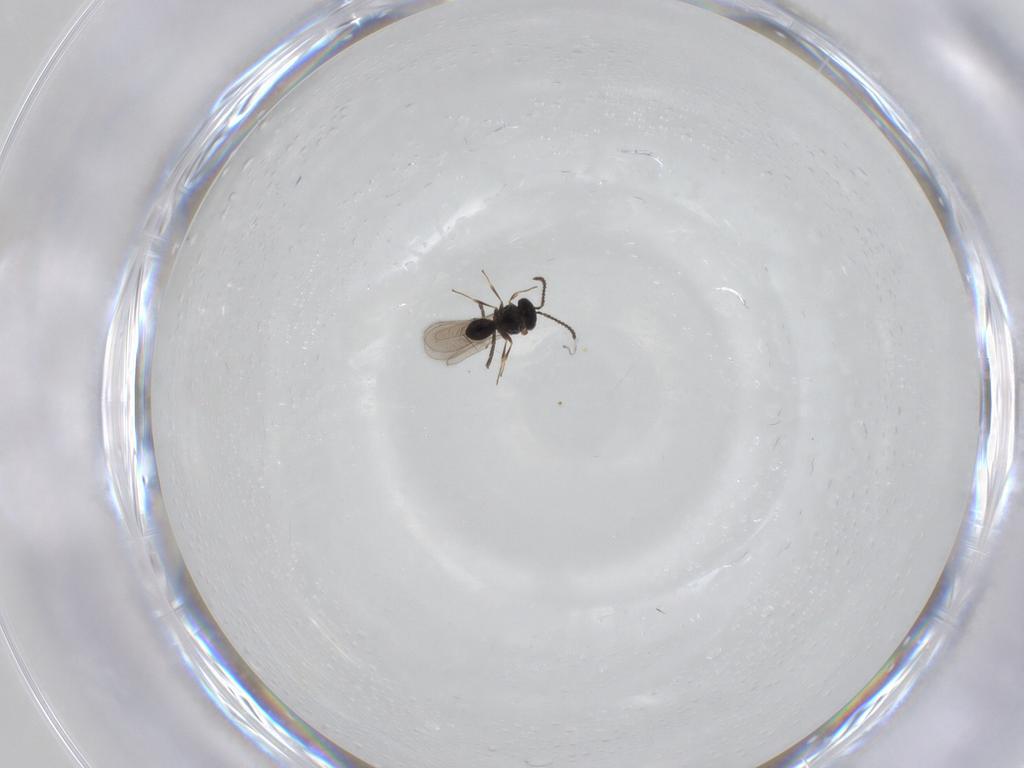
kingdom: Animalia
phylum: Arthropoda
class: Insecta
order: Hymenoptera
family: Scelionidae
